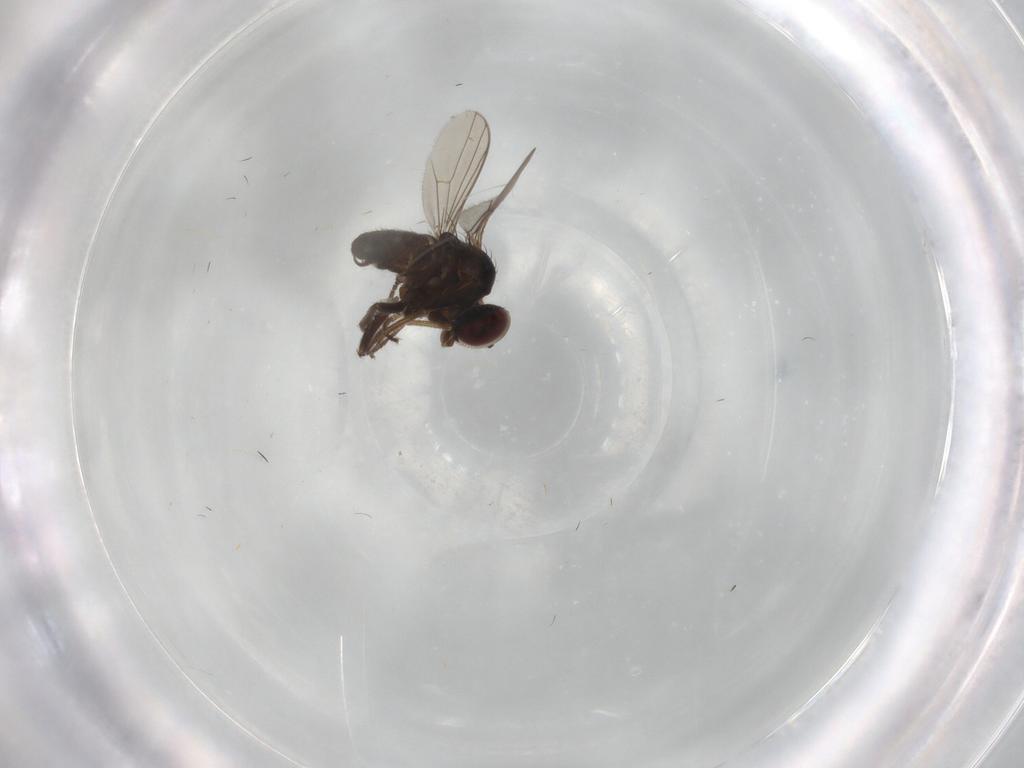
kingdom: Animalia
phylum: Arthropoda
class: Insecta
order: Diptera
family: Dolichopodidae
